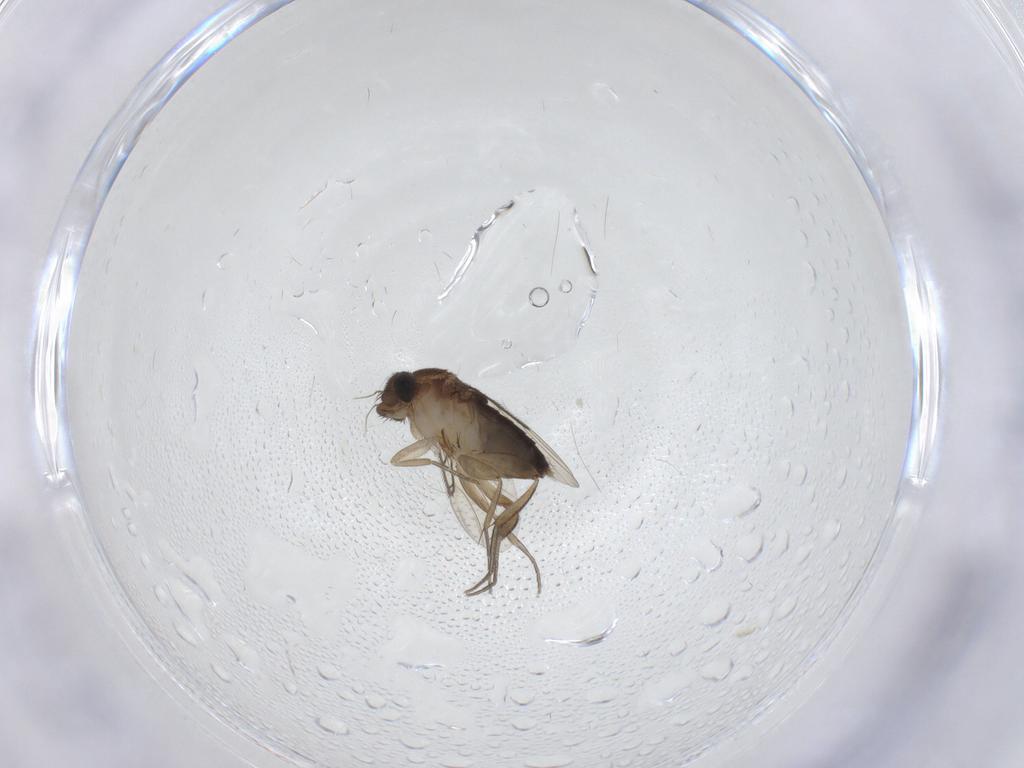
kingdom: Animalia
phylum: Arthropoda
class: Insecta
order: Diptera
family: Phoridae
